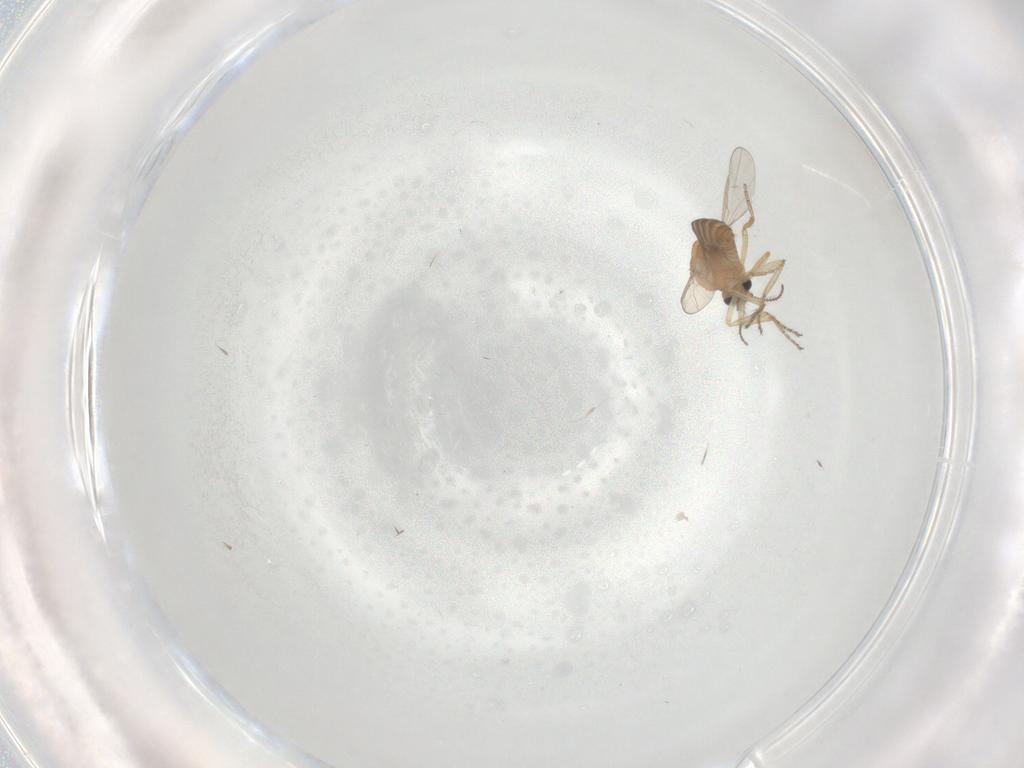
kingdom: Animalia
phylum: Arthropoda
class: Insecta
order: Diptera
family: Ceratopogonidae
